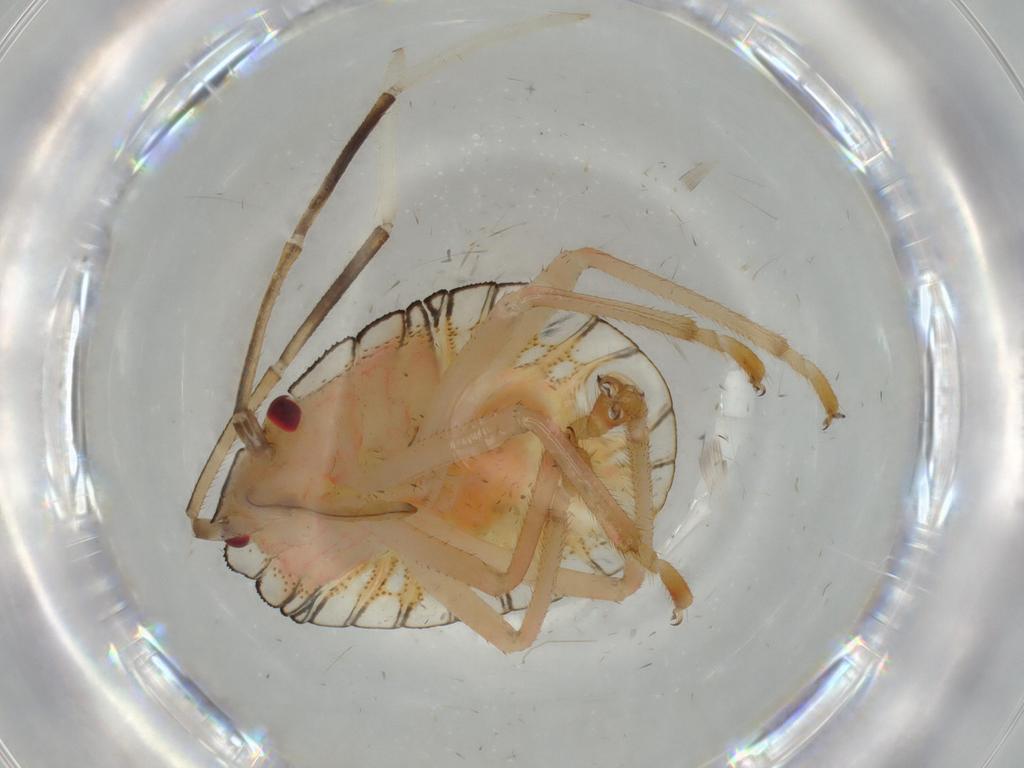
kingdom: Animalia
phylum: Arthropoda
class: Insecta
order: Hemiptera
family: Pentatomidae
